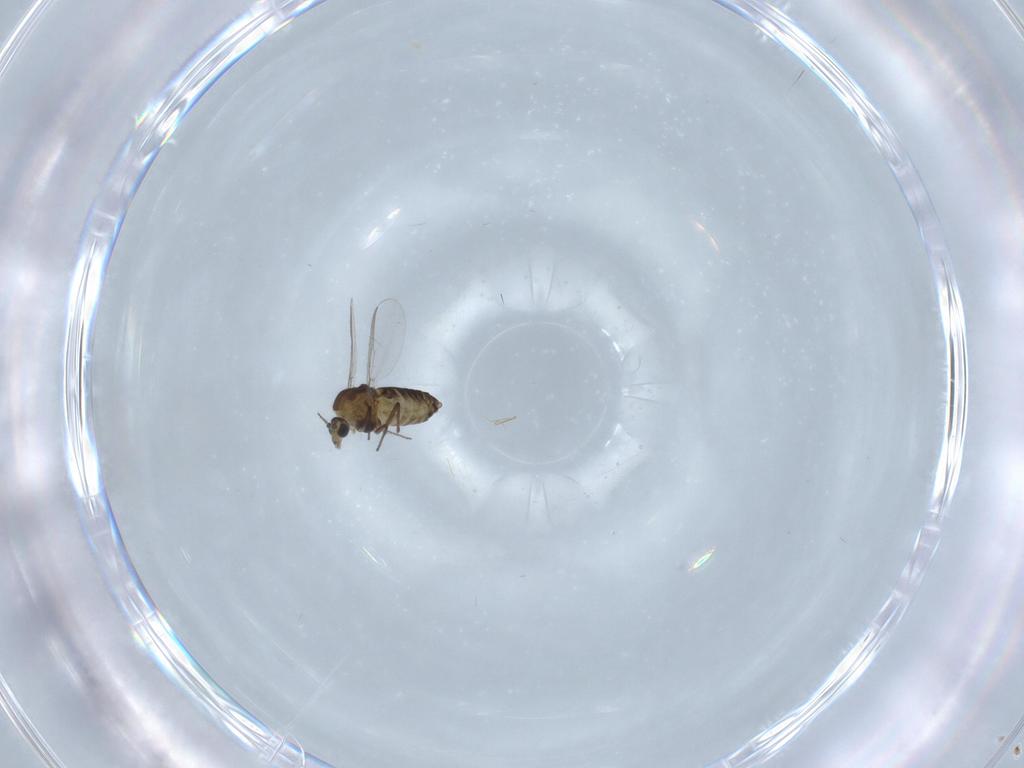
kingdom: Animalia
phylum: Arthropoda
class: Insecta
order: Diptera
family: Chironomidae
